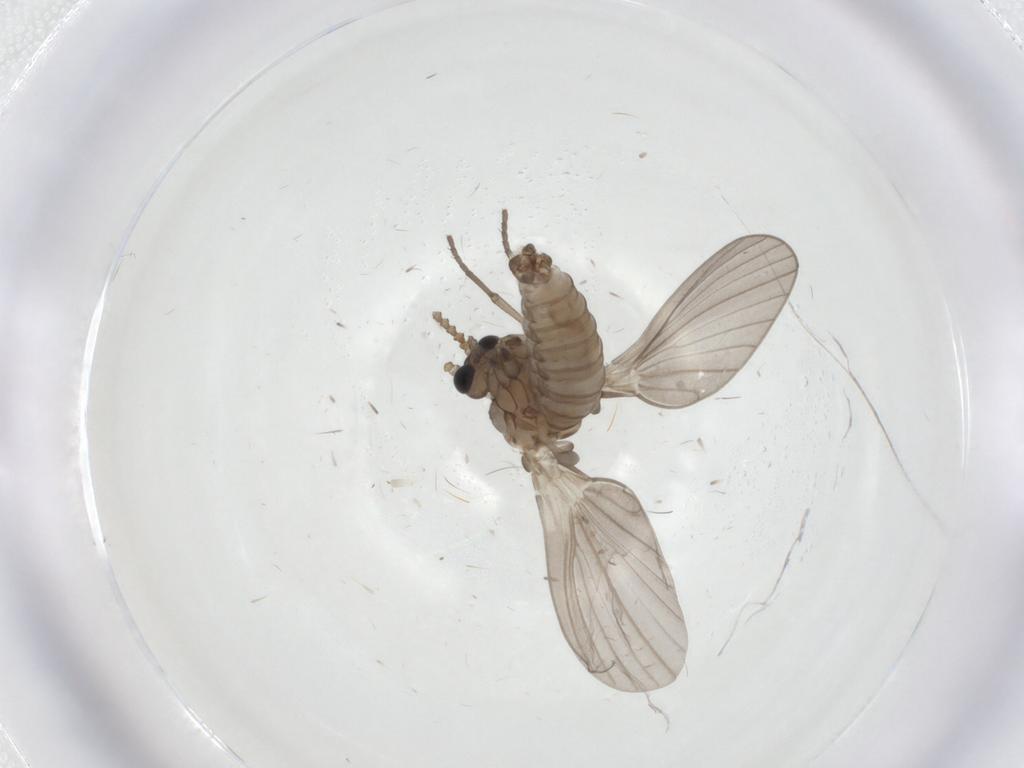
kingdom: Animalia
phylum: Arthropoda
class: Insecta
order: Diptera
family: Psychodidae
